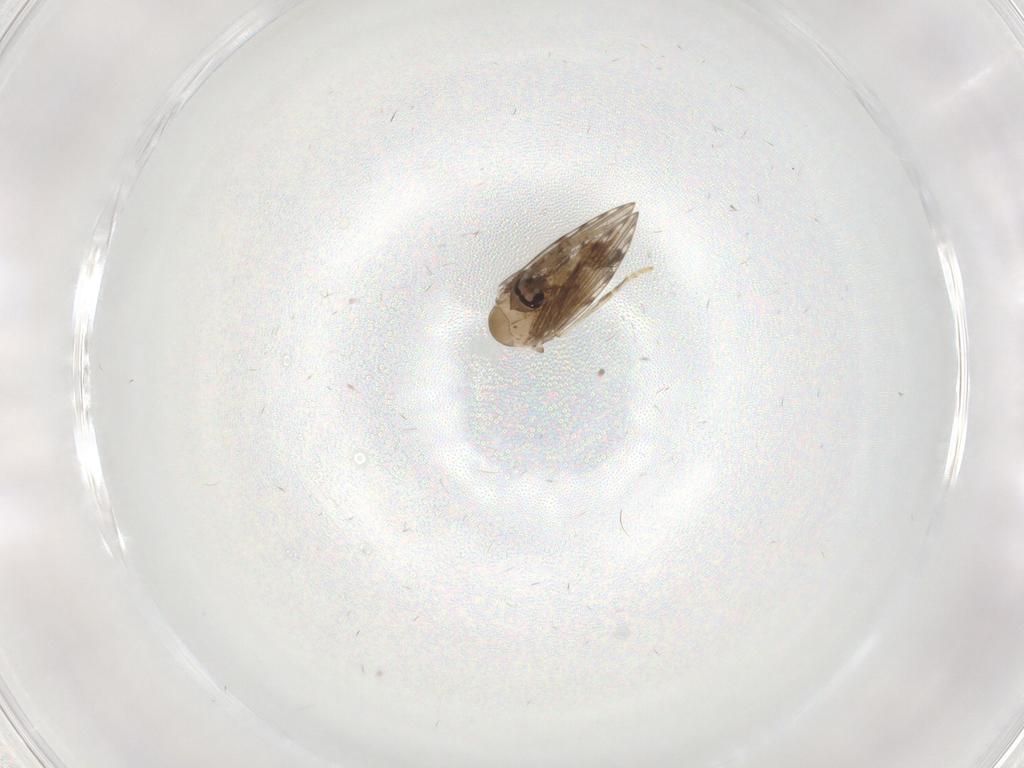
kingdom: Animalia
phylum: Arthropoda
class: Insecta
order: Diptera
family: Psychodidae
